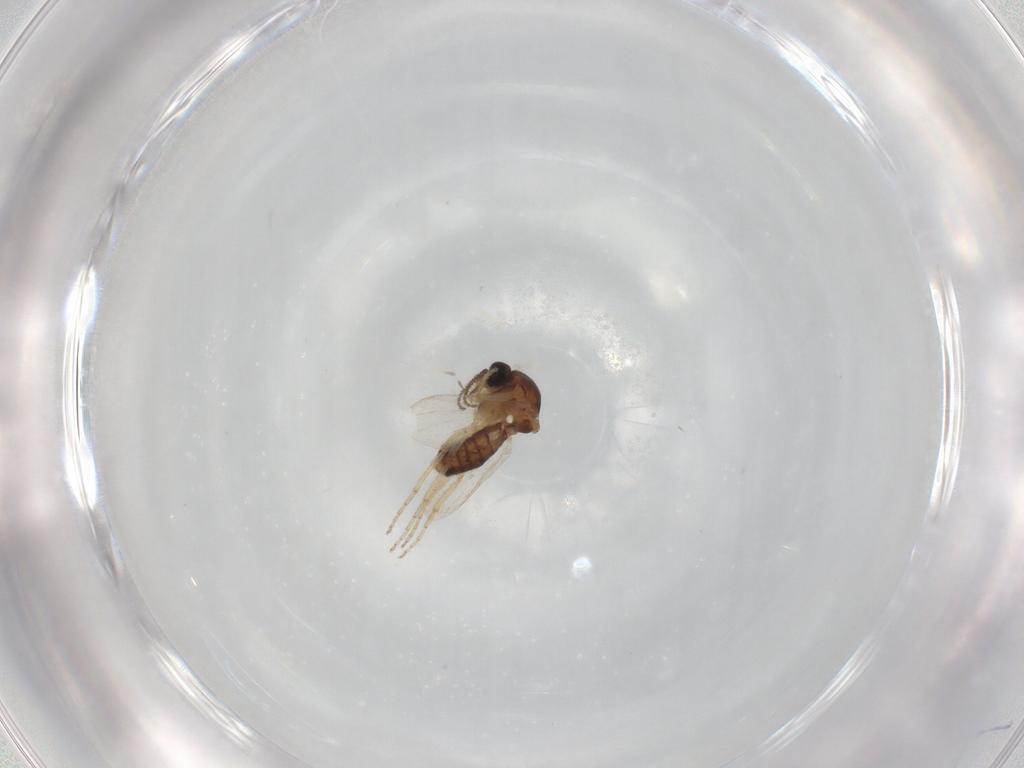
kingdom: Animalia
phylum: Arthropoda
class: Insecta
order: Diptera
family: Ceratopogonidae
